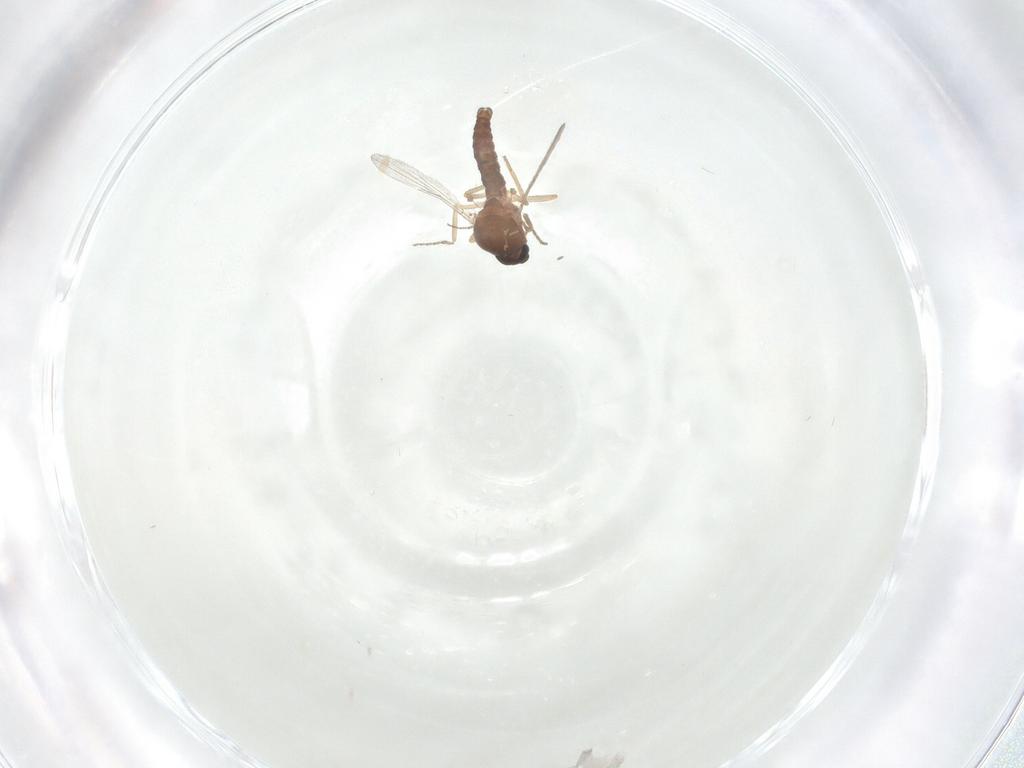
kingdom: Animalia
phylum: Arthropoda
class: Insecta
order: Diptera
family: Ceratopogonidae
